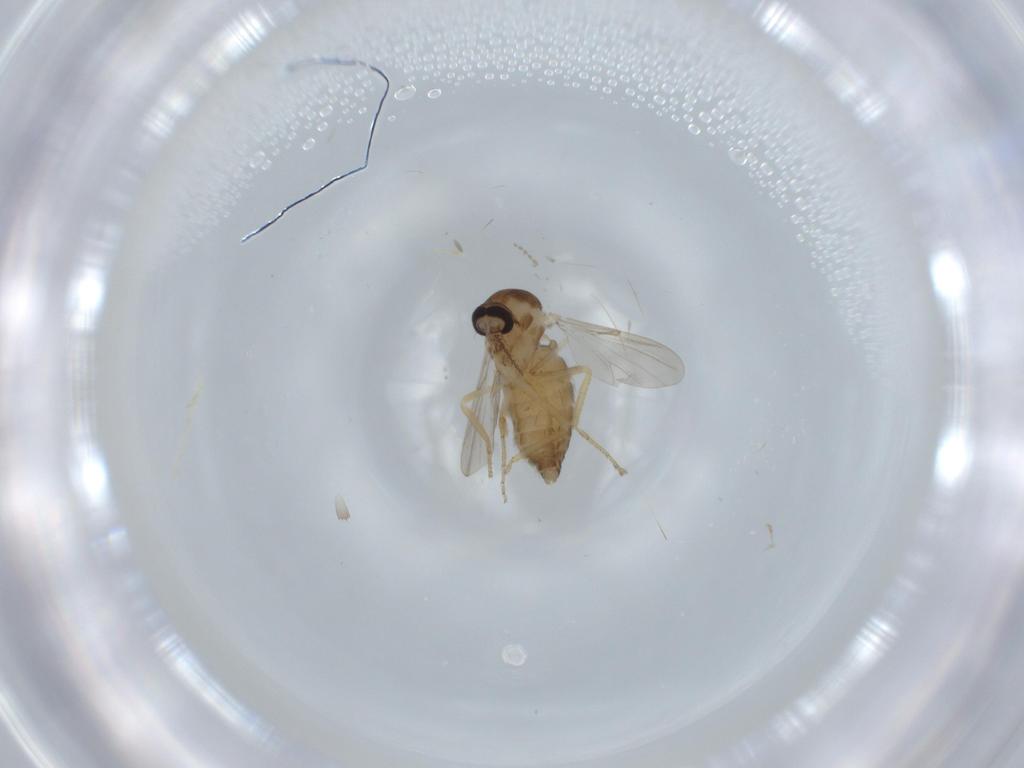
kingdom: Animalia
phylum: Arthropoda
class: Insecta
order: Diptera
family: Ceratopogonidae
